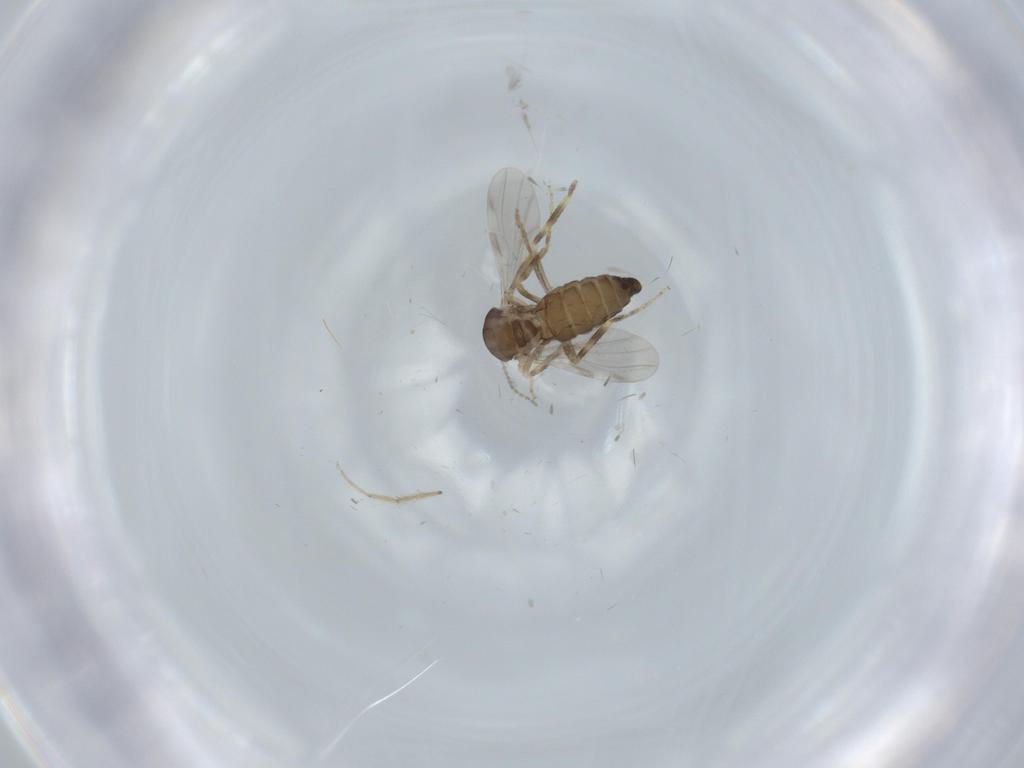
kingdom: Animalia
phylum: Arthropoda
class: Insecta
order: Diptera
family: Ceratopogonidae
